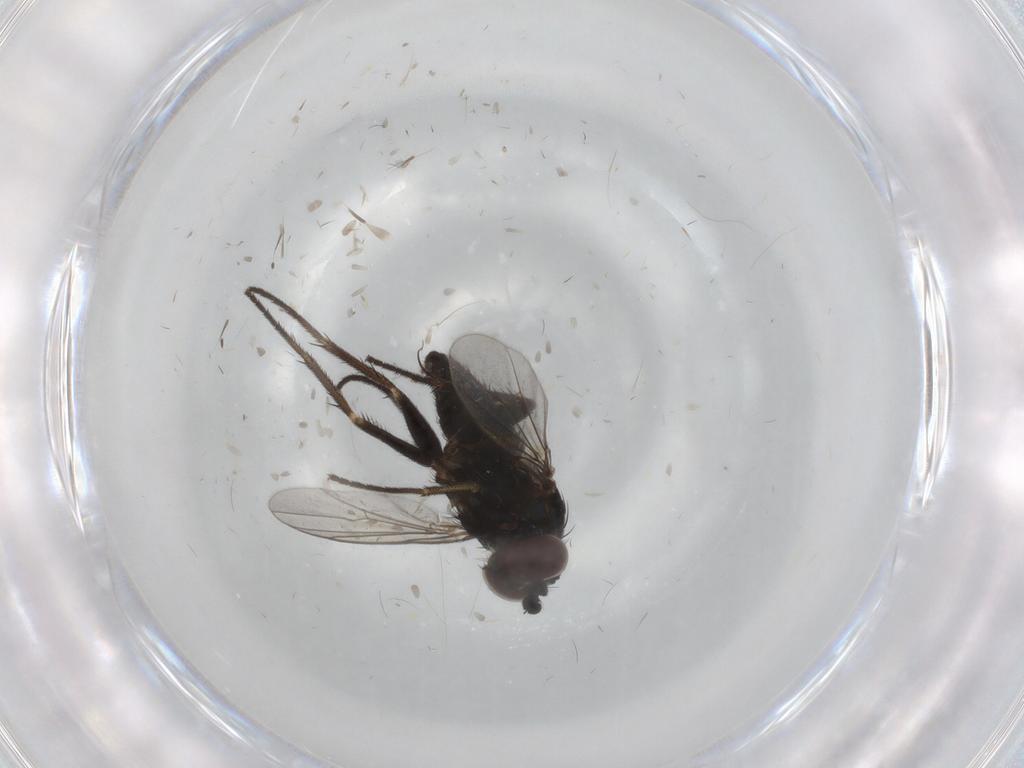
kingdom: Animalia
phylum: Arthropoda
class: Insecta
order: Diptera
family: Dolichopodidae
